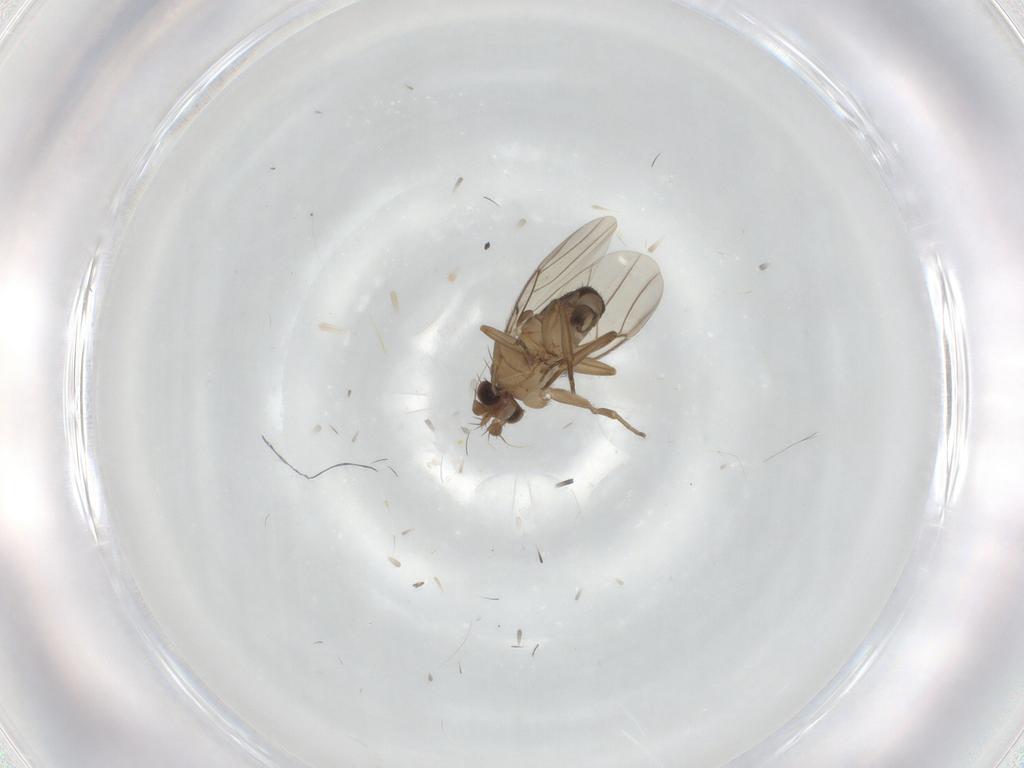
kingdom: Animalia
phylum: Arthropoda
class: Insecta
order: Diptera
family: Phoridae
